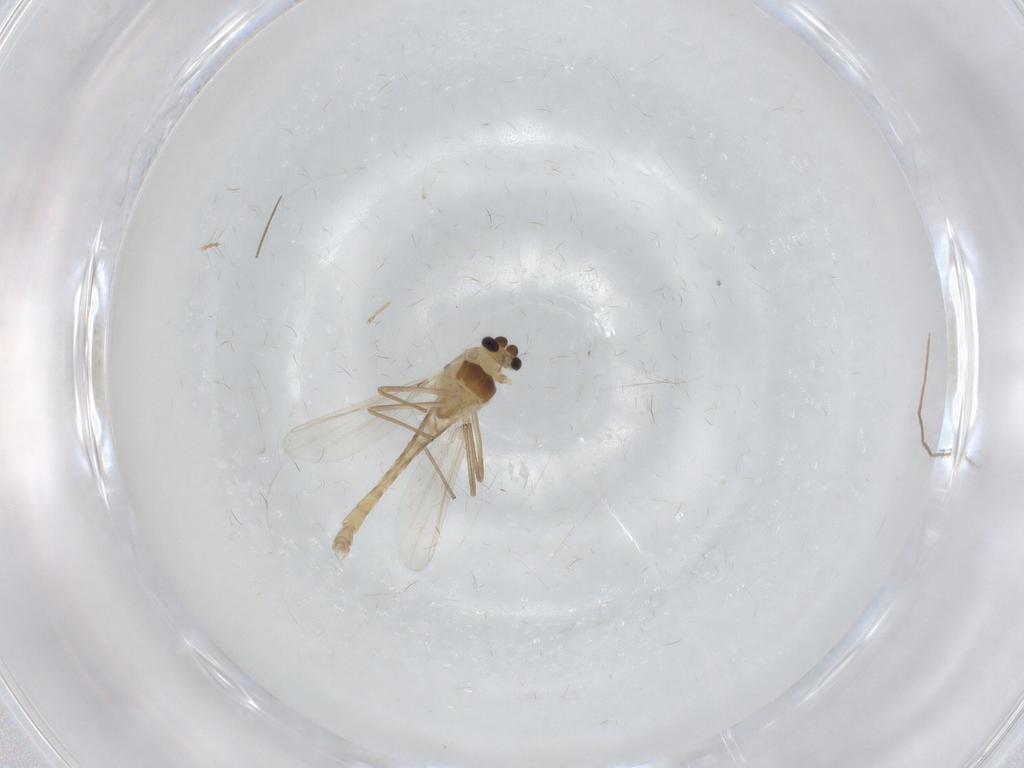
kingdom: Animalia
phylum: Arthropoda
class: Insecta
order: Diptera
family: Chironomidae
